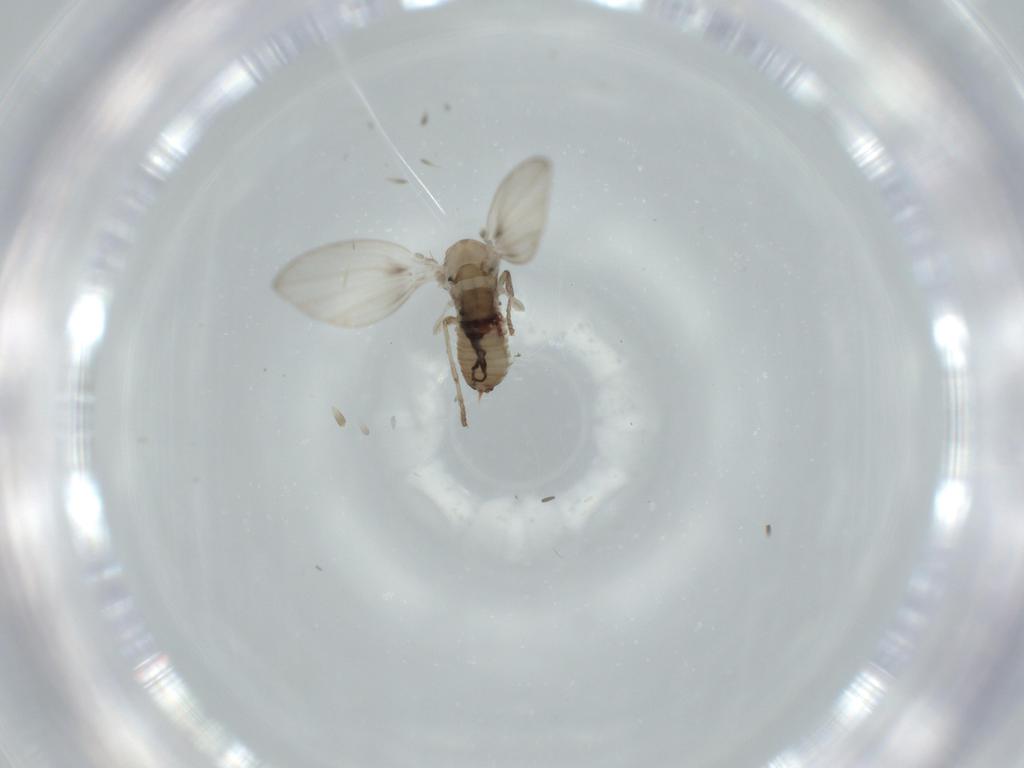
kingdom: Animalia
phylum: Arthropoda
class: Insecta
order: Diptera
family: Psychodidae
